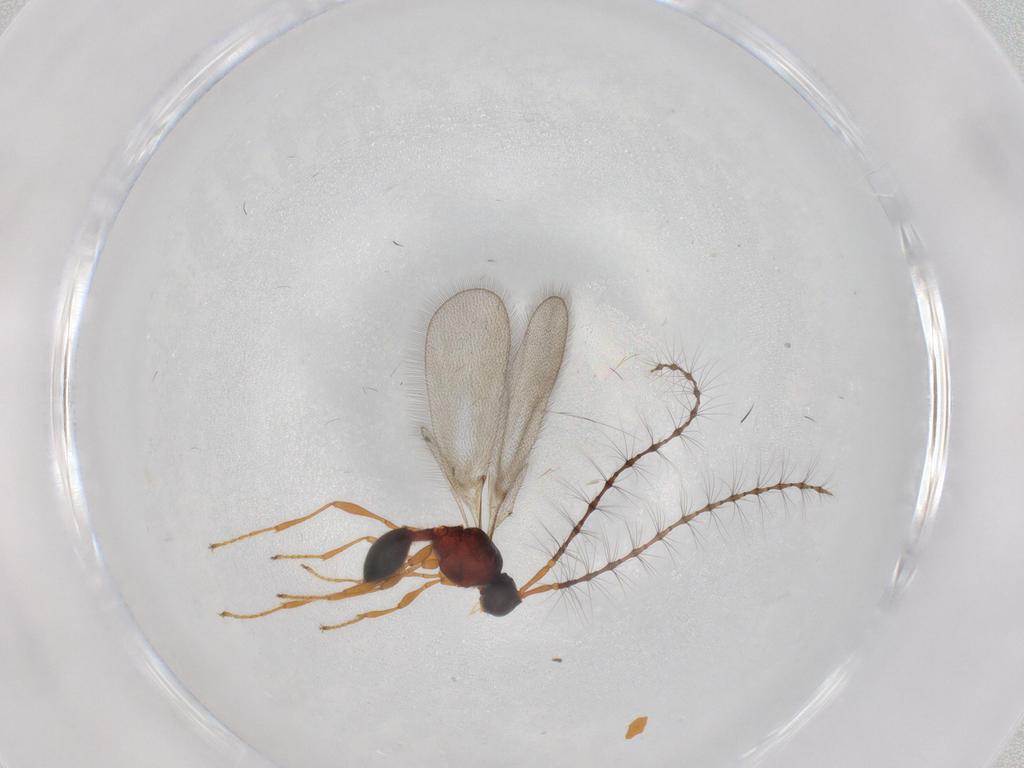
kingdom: Animalia
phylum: Arthropoda
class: Insecta
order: Hymenoptera
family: Diapriidae
